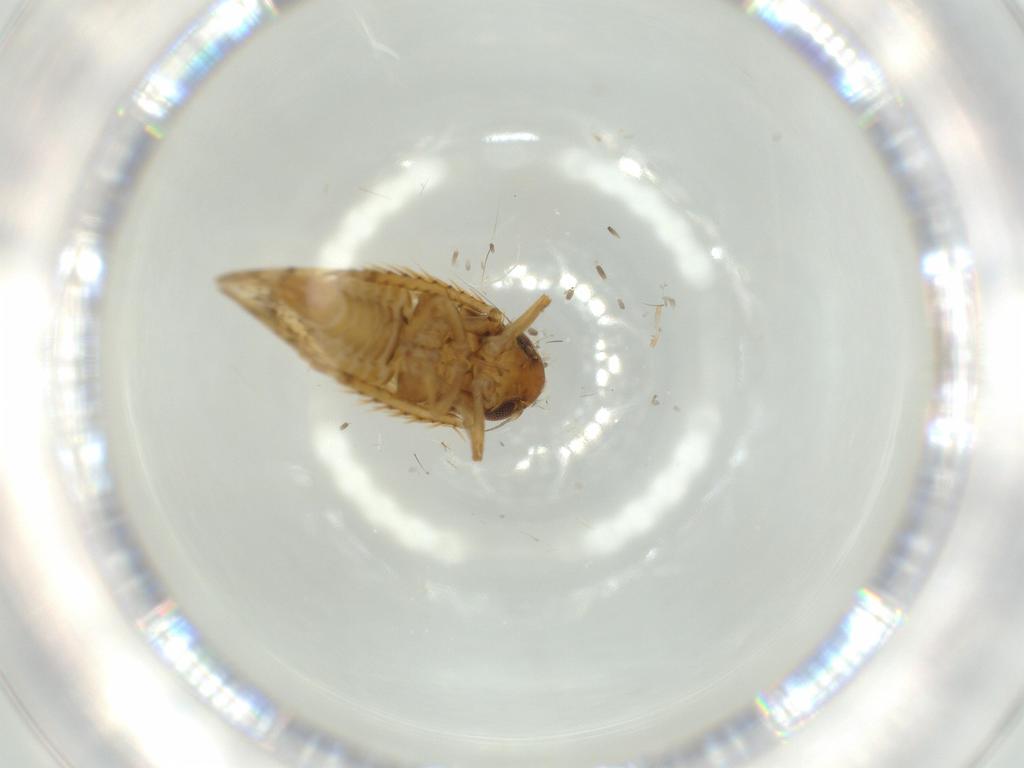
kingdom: Animalia
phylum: Arthropoda
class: Insecta
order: Hemiptera
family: Cicadellidae
